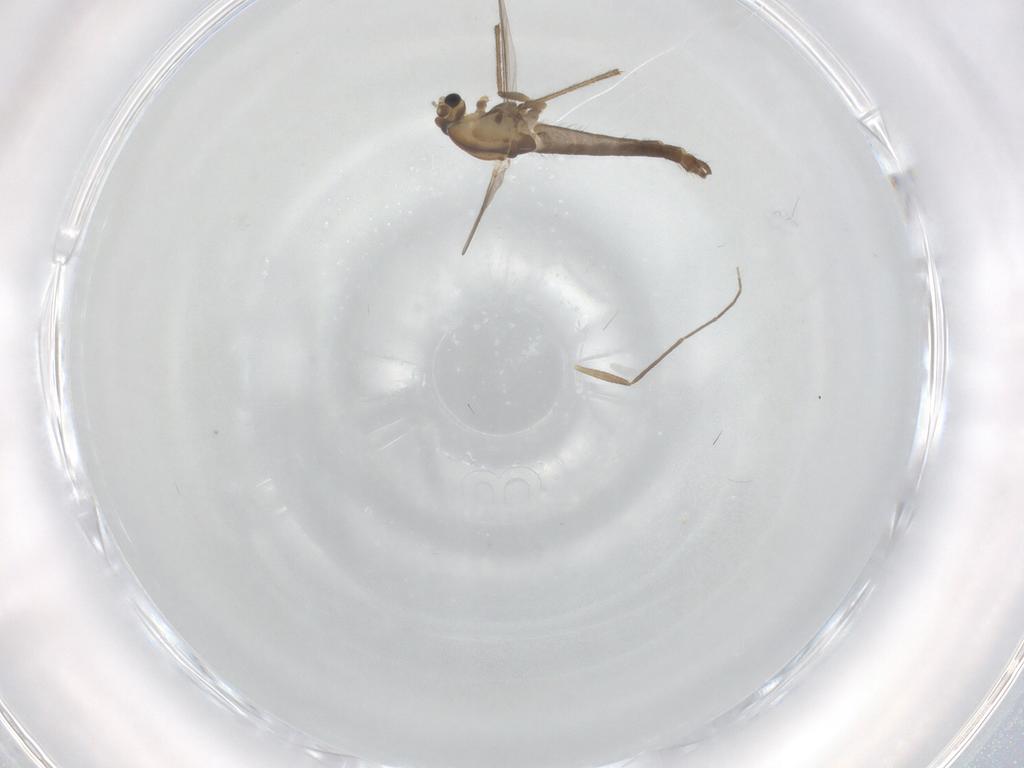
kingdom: Animalia
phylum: Arthropoda
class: Insecta
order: Diptera
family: Chironomidae
